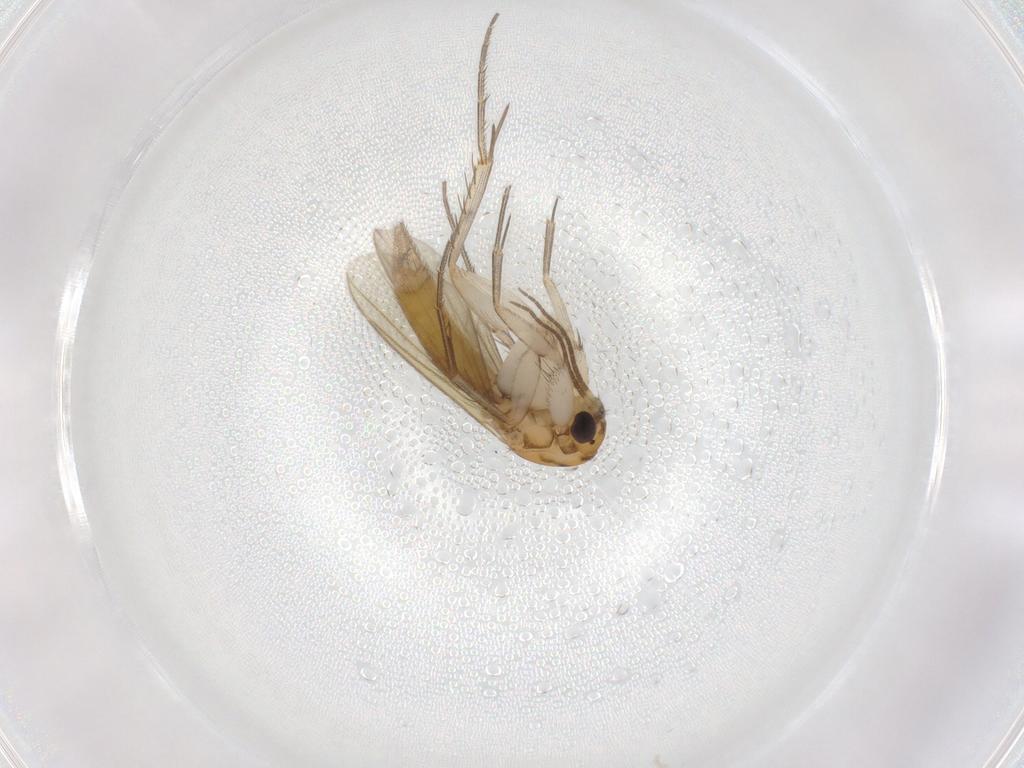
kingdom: Animalia
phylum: Arthropoda
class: Insecta
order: Diptera
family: Mycetophilidae
